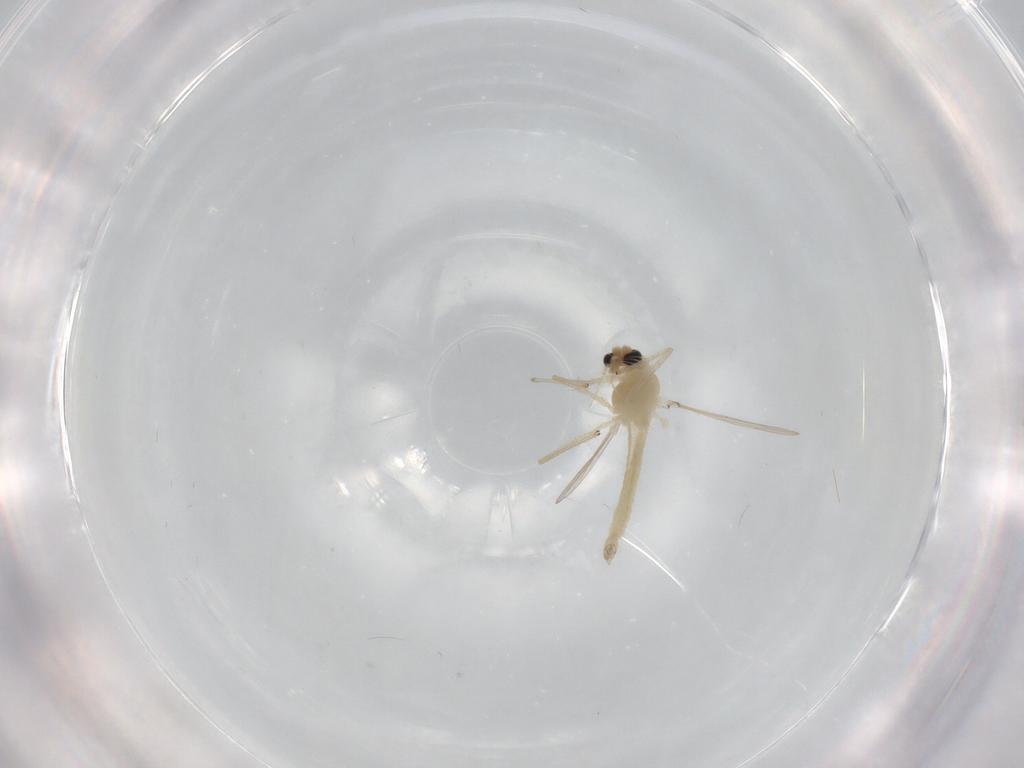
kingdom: Animalia
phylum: Arthropoda
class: Insecta
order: Diptera
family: Chironomidae
